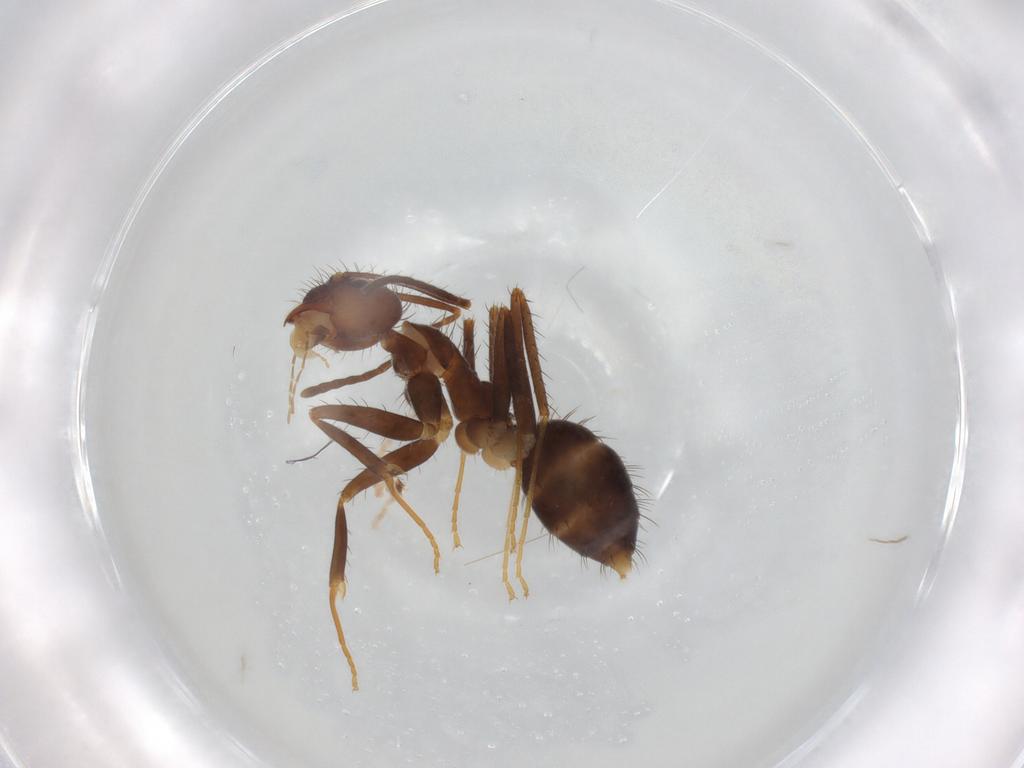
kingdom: Animalia
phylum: Arthropoda
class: Insecta
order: Hymenoptera
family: Formicidae
